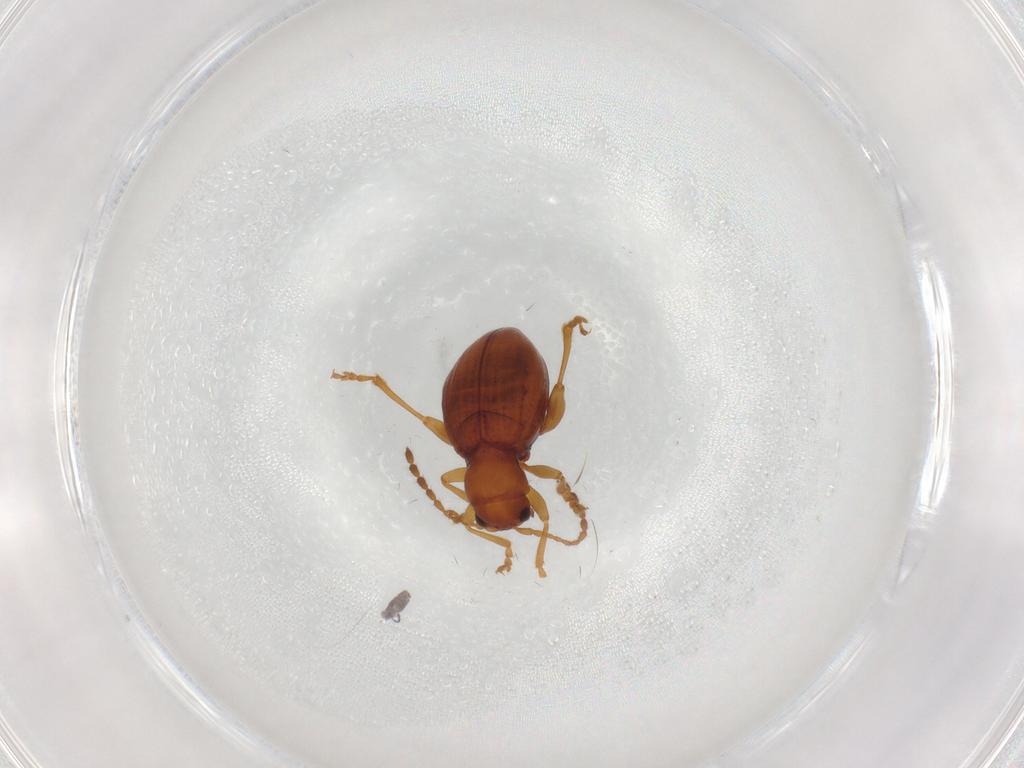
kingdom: Animalia
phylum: Arthropoda
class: Insecta
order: Coleoptera
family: Chrysomelidae
